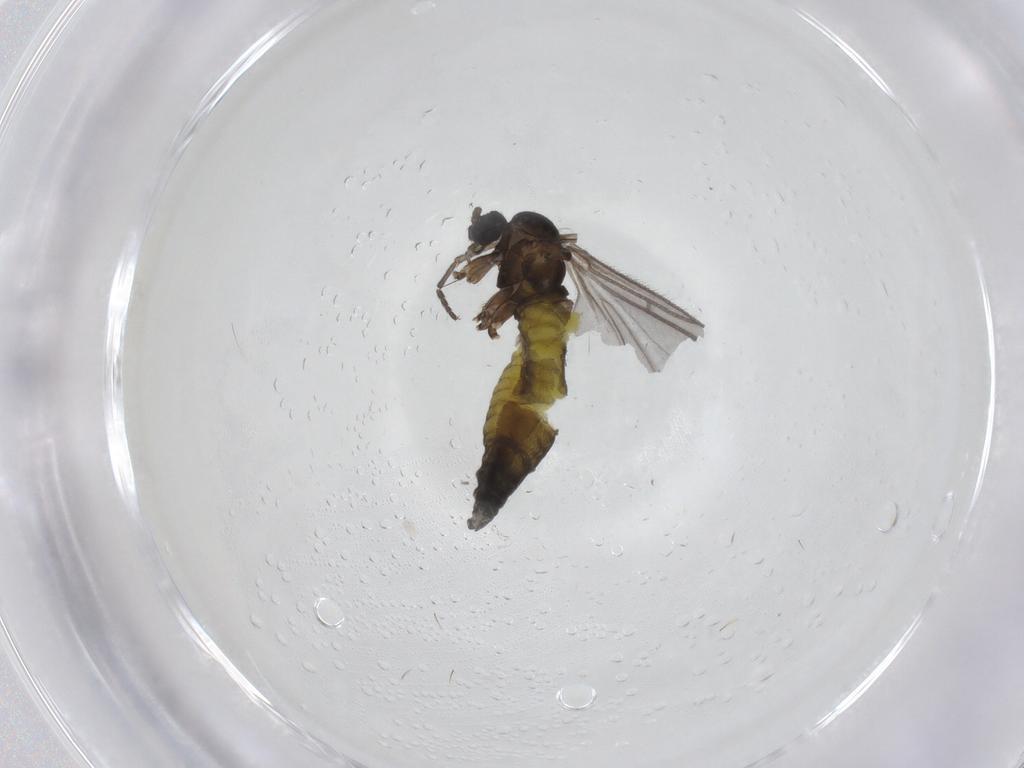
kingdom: Animalia
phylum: Arthropoda
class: Insecta
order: Diptera
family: Sciaridae
